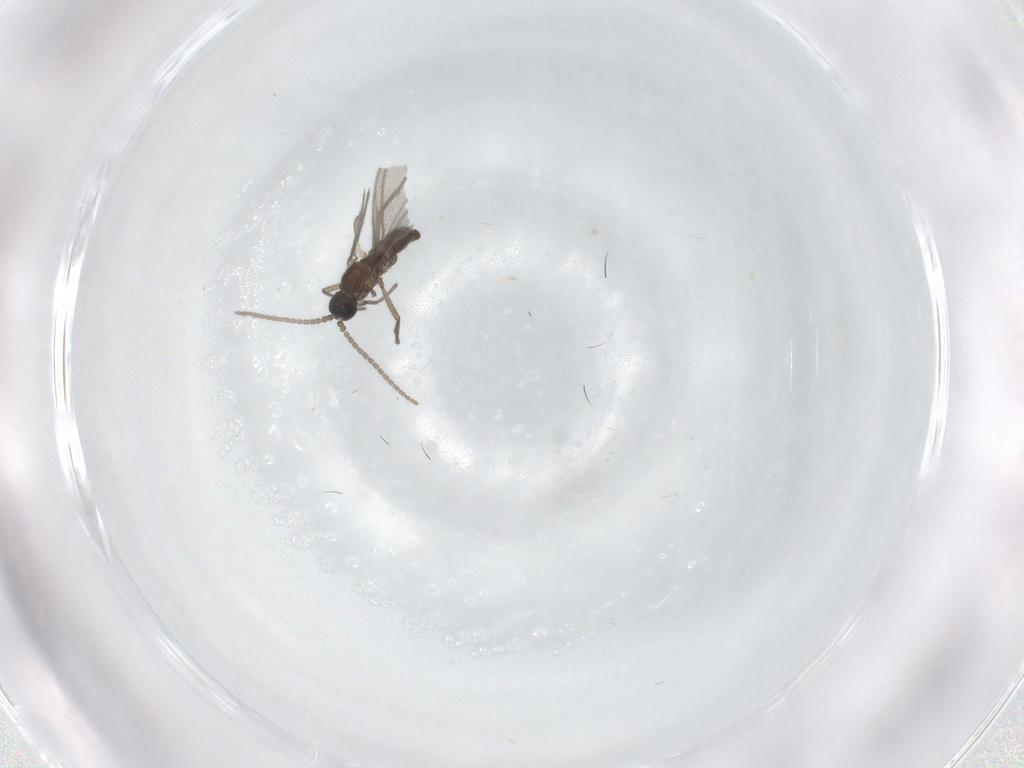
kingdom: Animalia
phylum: Arthropoda
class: Insecta
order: Diptera
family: Sciaridae
